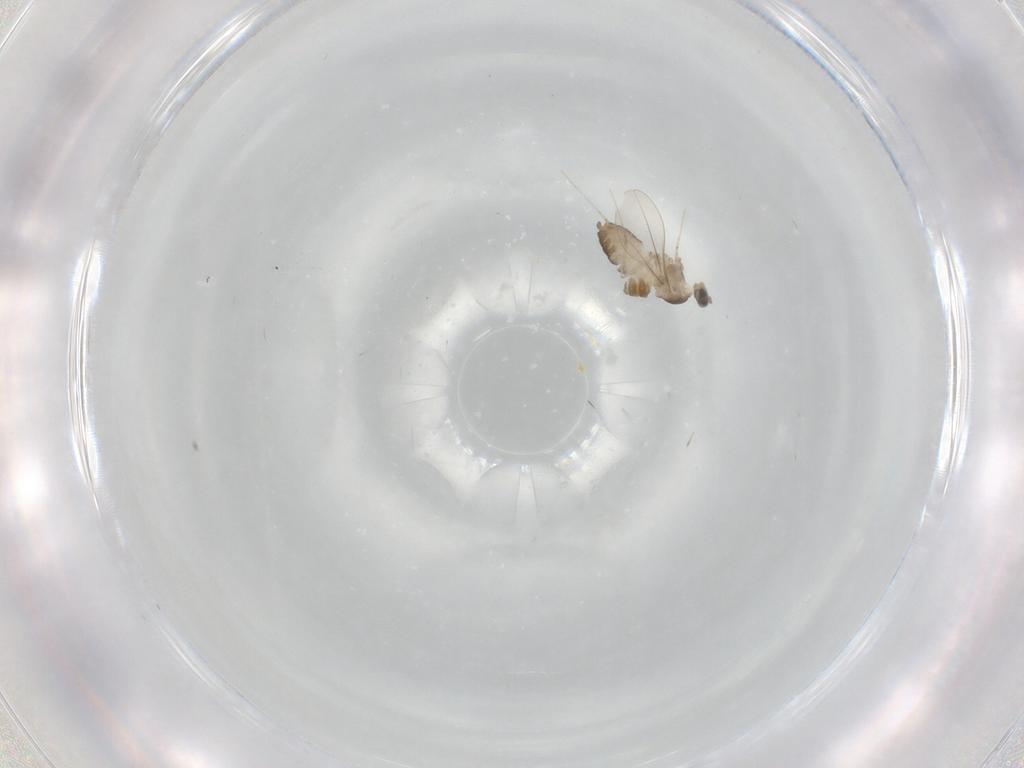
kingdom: Animalia
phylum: Arthropoda
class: Insecta
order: Diptera
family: Cecidomyiidae
